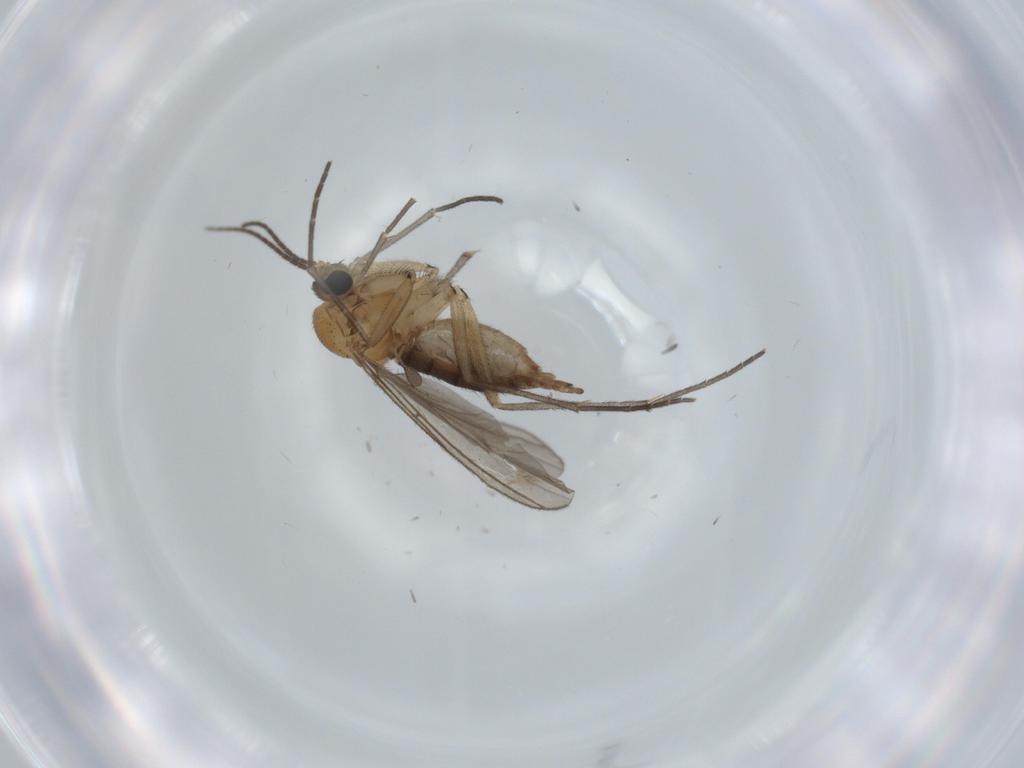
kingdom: Animalia
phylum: Arthropoda
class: Insecta
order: Diptera
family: Sciaridae
